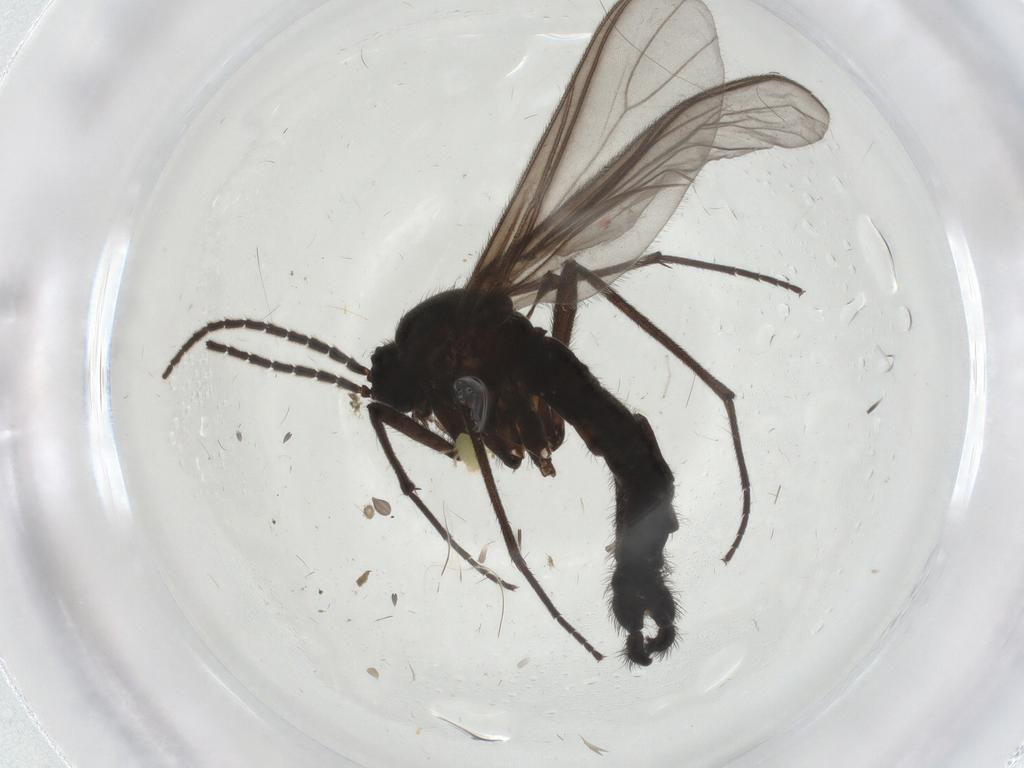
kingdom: Animalia
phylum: Arthropoda
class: Insecta
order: Diptera
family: Sciaridae
